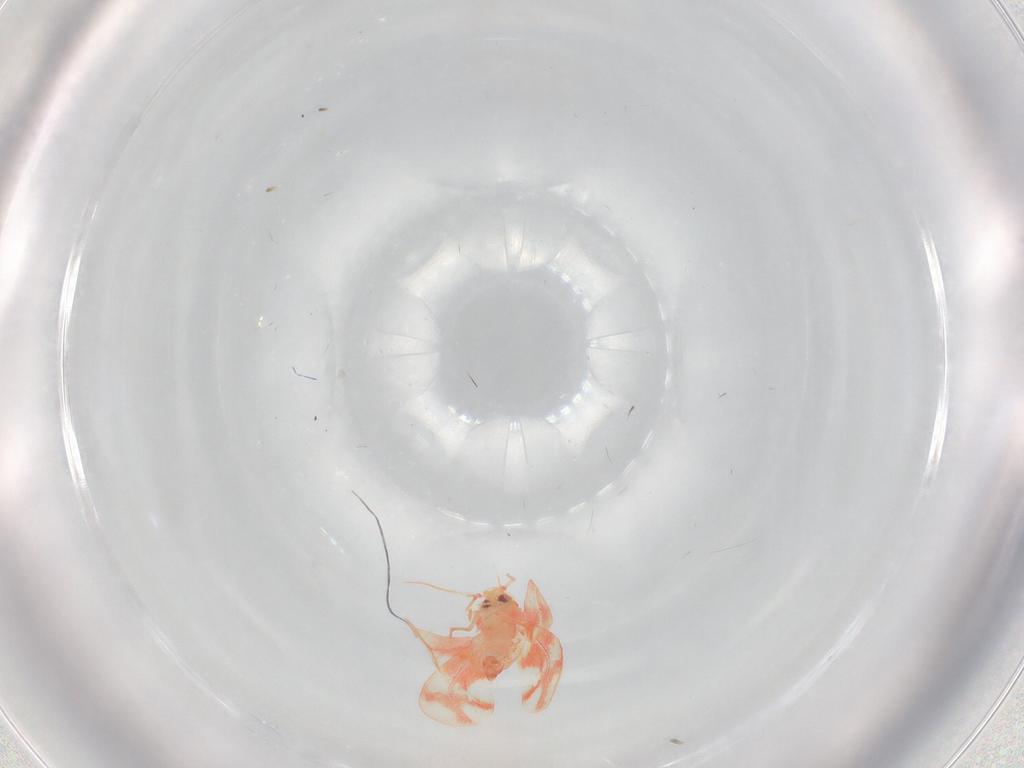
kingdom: Animalia
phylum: Arthropoda
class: Insecta
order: Hemiptera
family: Aleyrodidae
